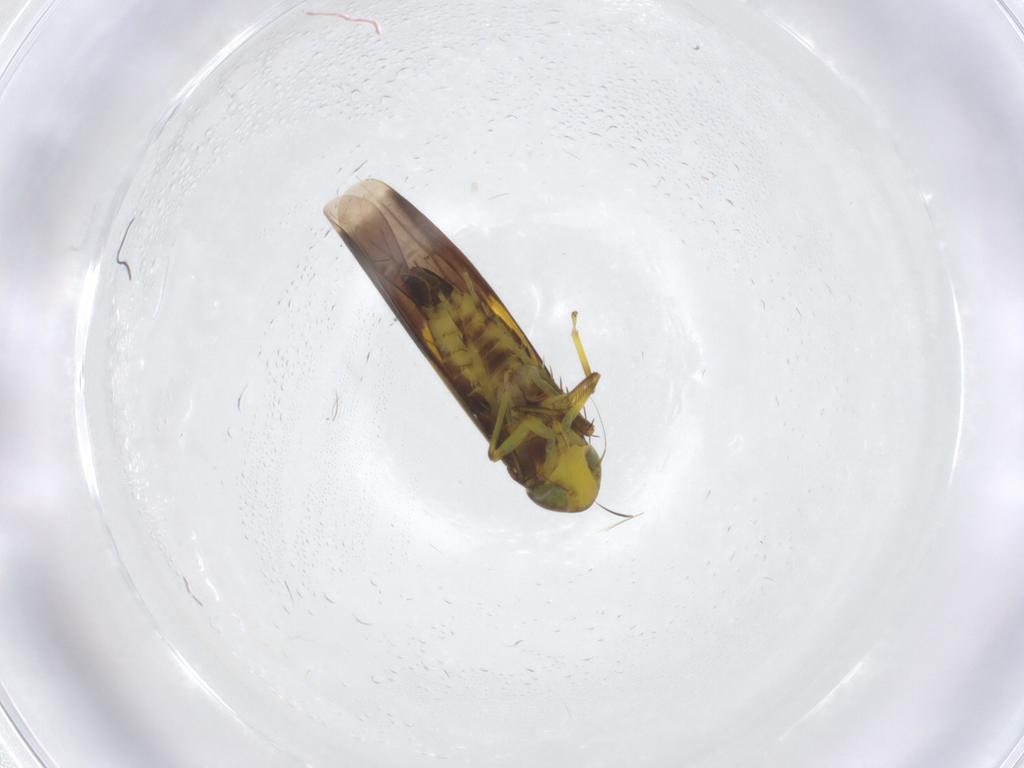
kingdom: Animalia
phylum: Arthropoda
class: Insecta
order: Hemiptera
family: Cicadellidae
